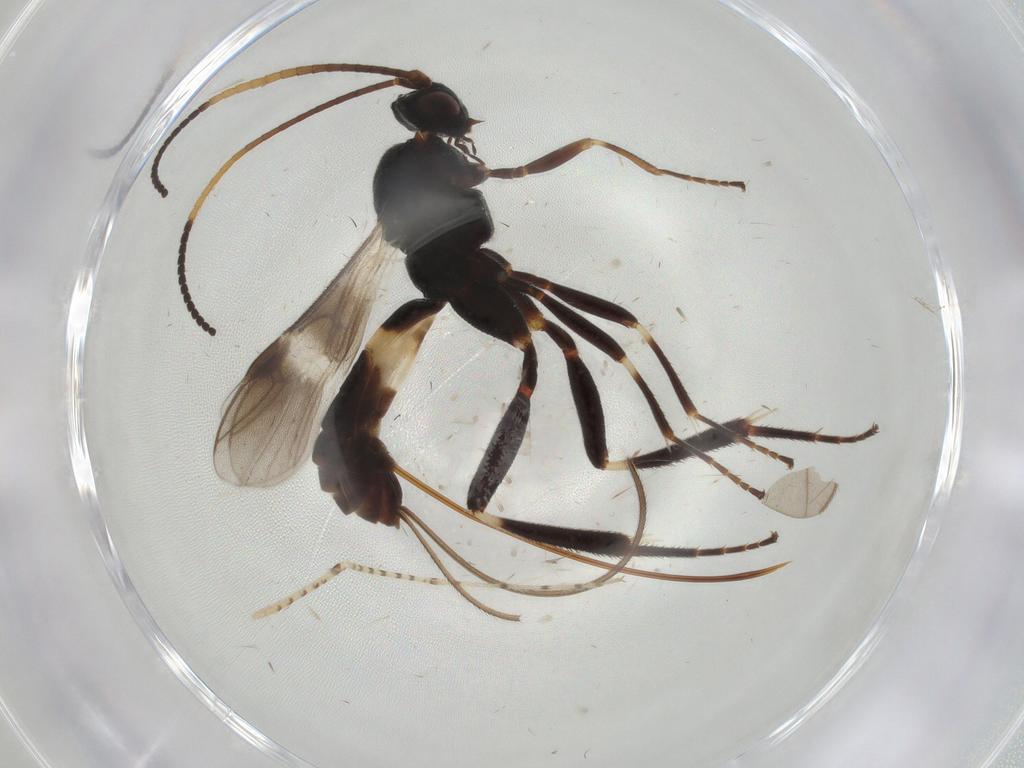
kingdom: Animalia
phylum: Arthropoda
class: Insecta
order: Hymenoptera
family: Braconidae
